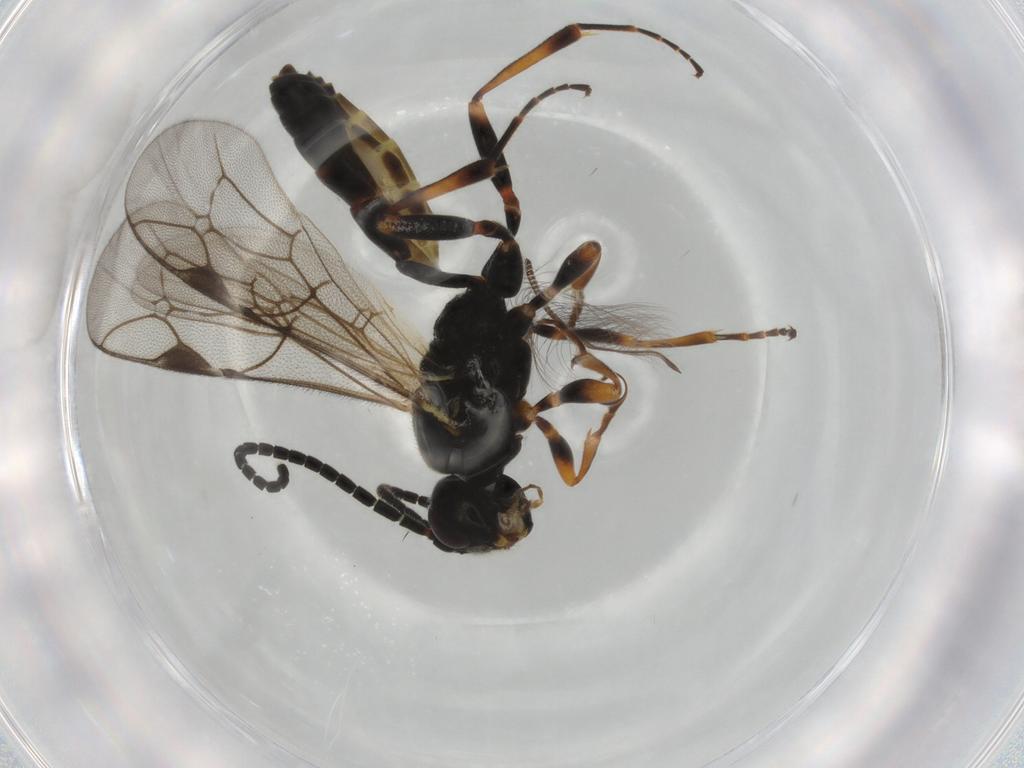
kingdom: Animalia
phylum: Arthropoda
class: Insecta
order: Hymenoptera
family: Ichneumonidae
